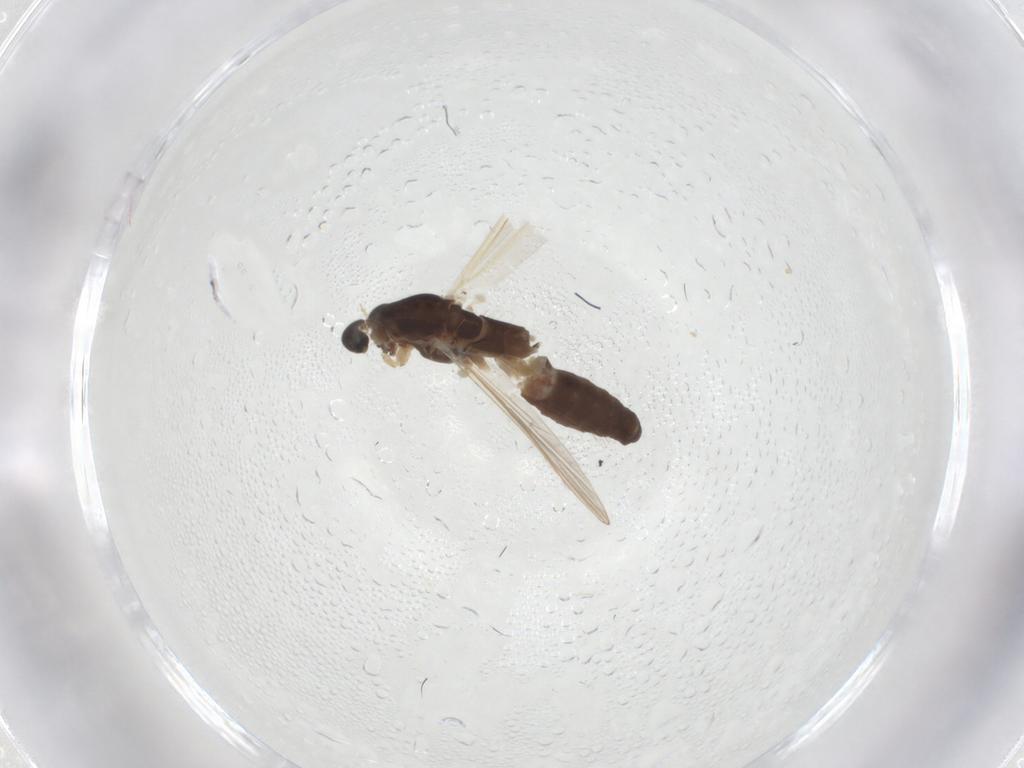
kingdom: Animalia
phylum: Arthropoda
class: Insecta
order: Diptera
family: Chironomidae
